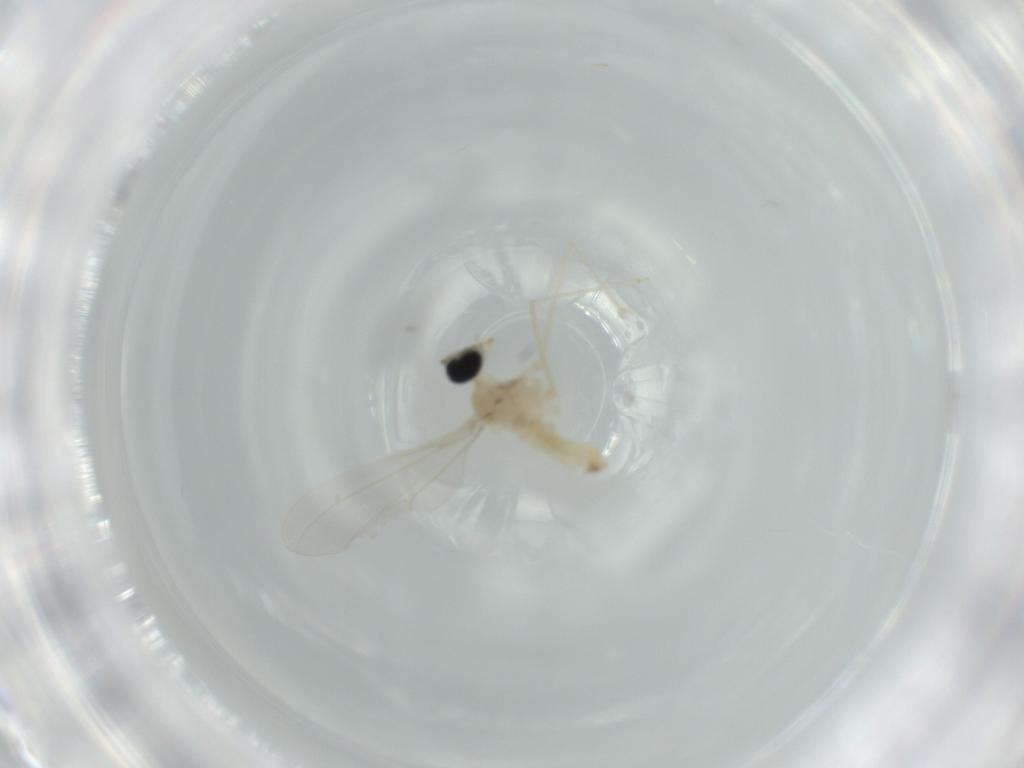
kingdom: Animalia
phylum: Arthropoda
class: Insecta
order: Diptera
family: Cecidomyiidae
